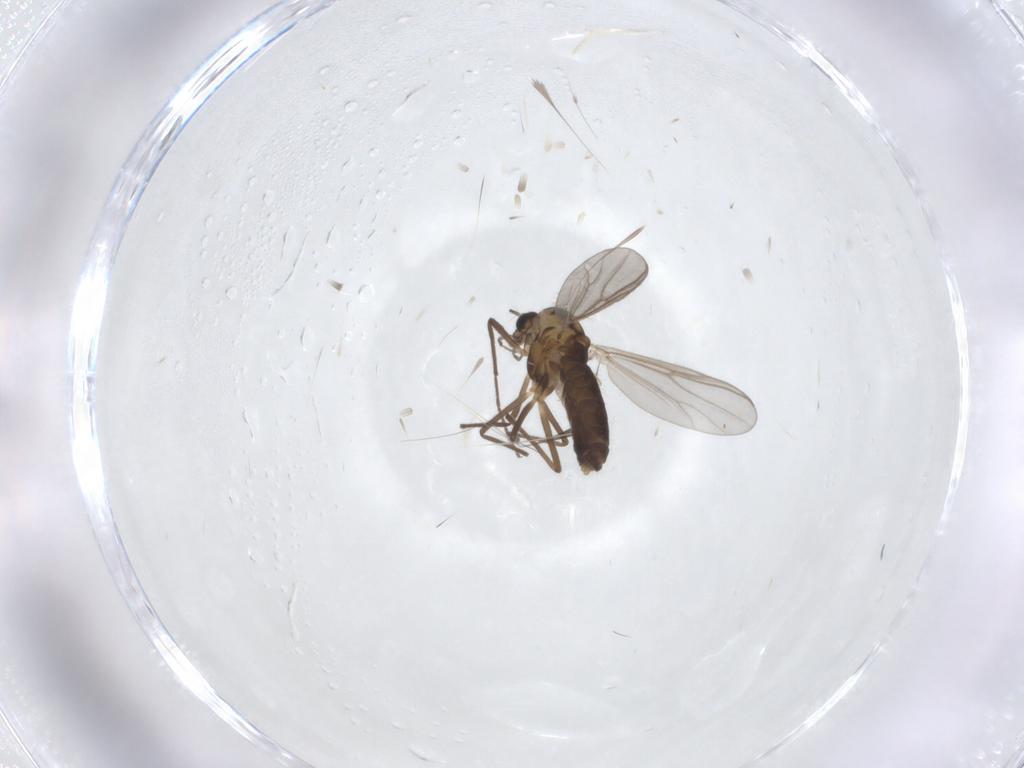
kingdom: Animalia
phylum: Arthropoda
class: Insecta
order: Diptera
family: Chironomidae
